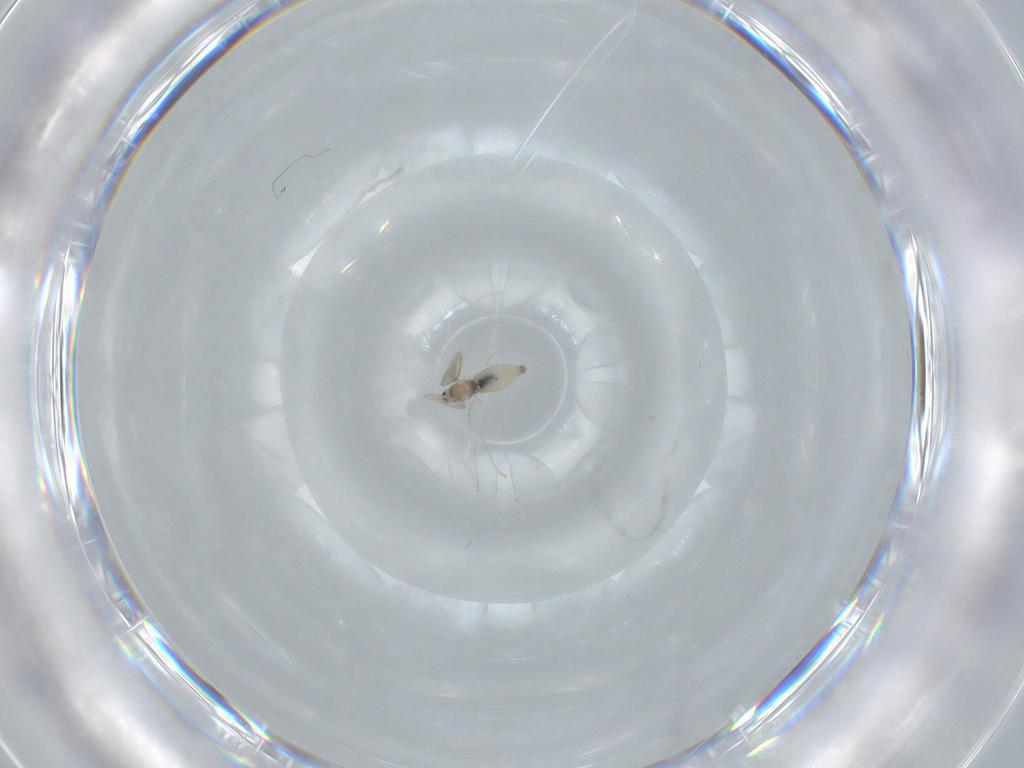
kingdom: Animalia
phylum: Arthropoda
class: Insecta
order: Diptera
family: Cecidomyiidae
